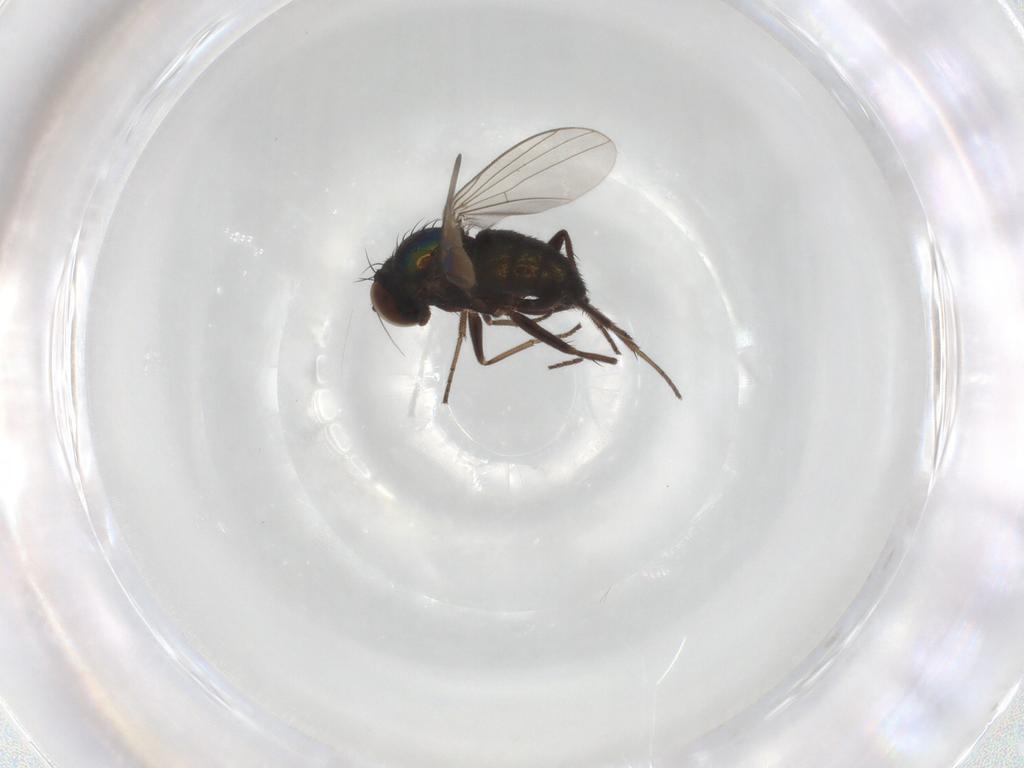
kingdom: Animalia
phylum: Arthropoda
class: Insecta
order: Diptera
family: Dolichopodidae
